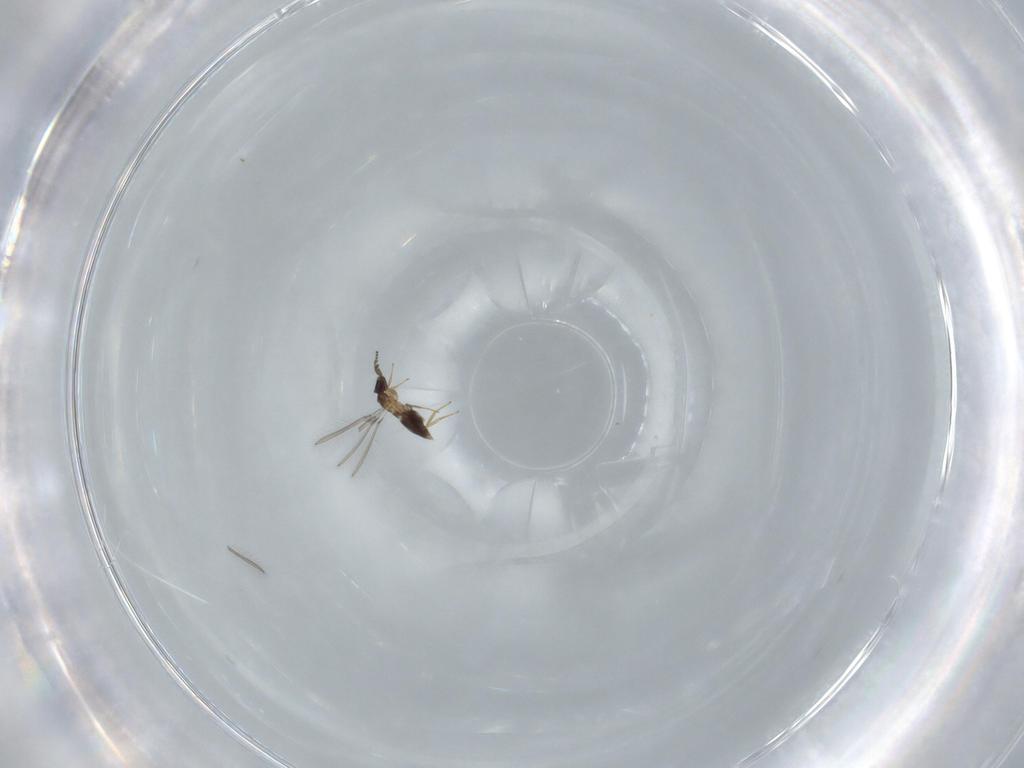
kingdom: Animalia
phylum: Arthropoda
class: Insecta
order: Hymenoptera
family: Mymaridae
